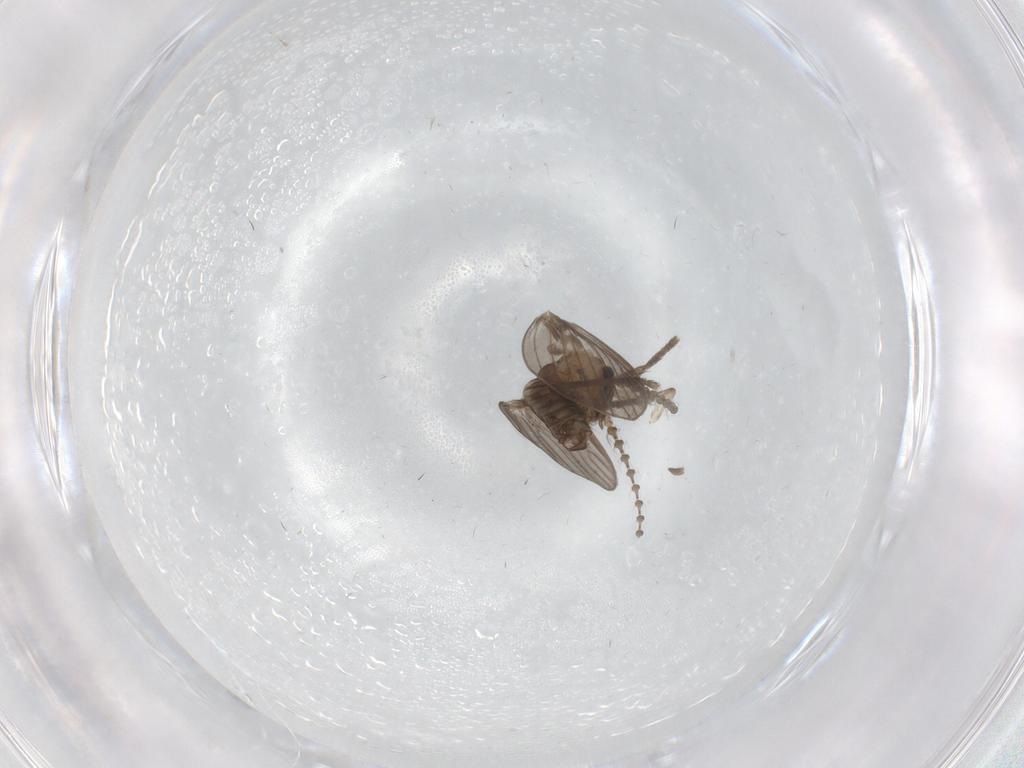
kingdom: Animalia
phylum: Arthropoda
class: Insecta
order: Diptera
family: Psychodidae
